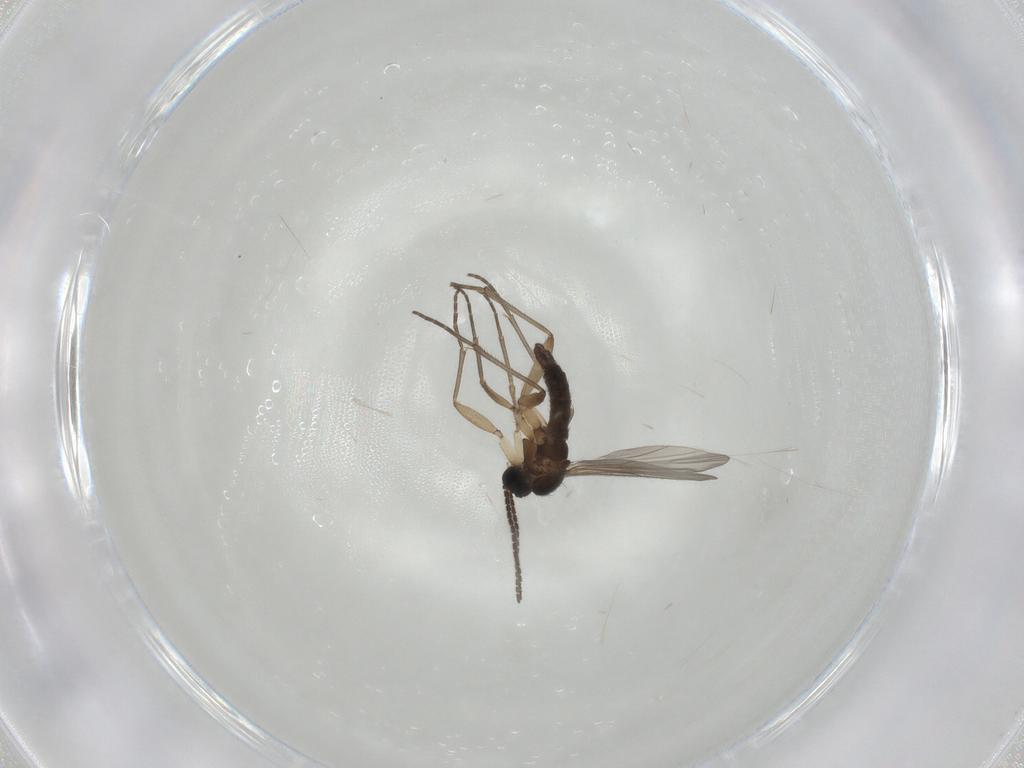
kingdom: Animalia
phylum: Arthropoda
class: Insecta
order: Diptera
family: Sciaridae
